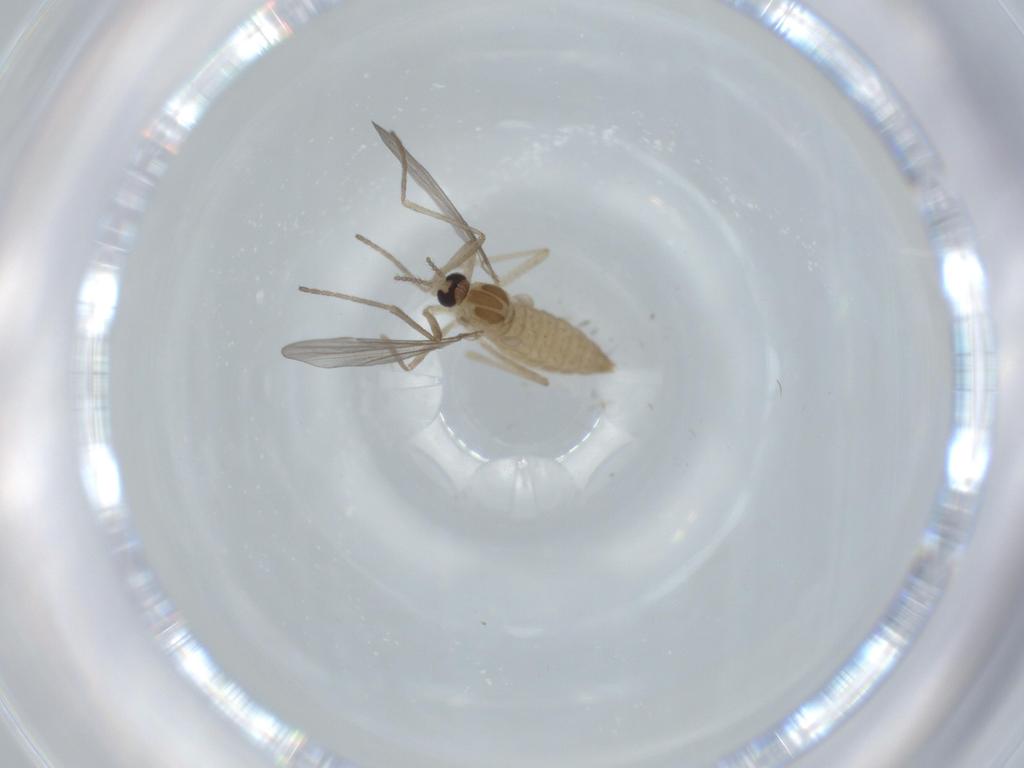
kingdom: Animalia
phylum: Arthropoda
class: Insecta
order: Diptera
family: Cecidomyiidae
